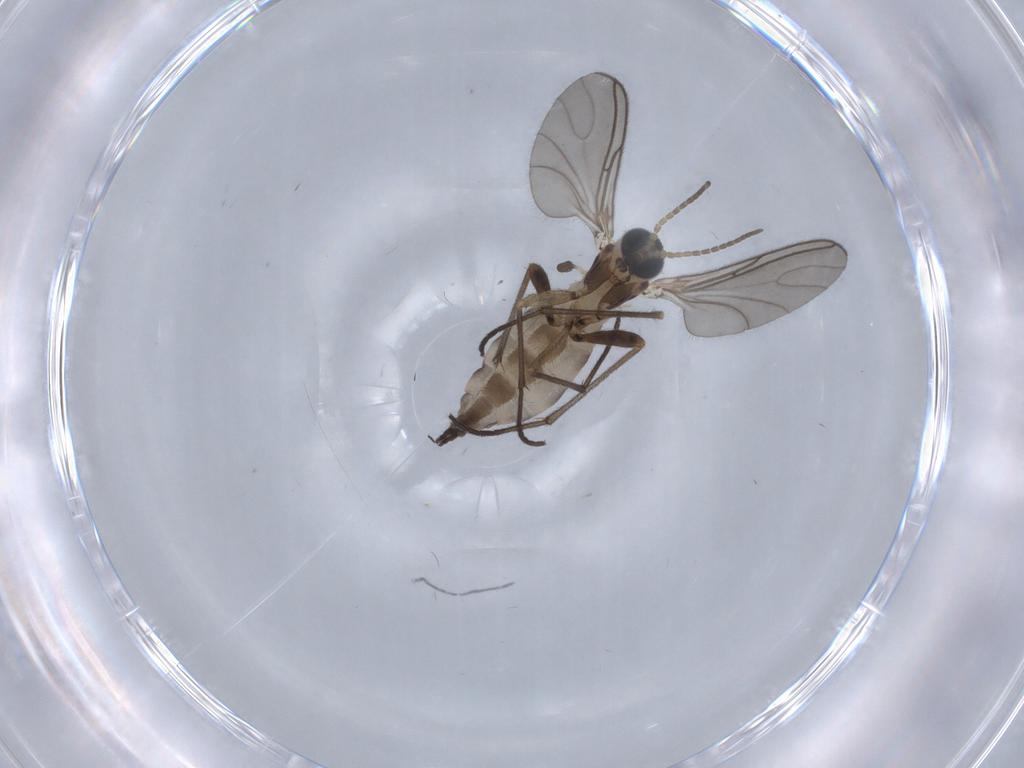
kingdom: Animalia
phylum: Arthropoda
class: Insecta
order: Diptera
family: Sciaridae
